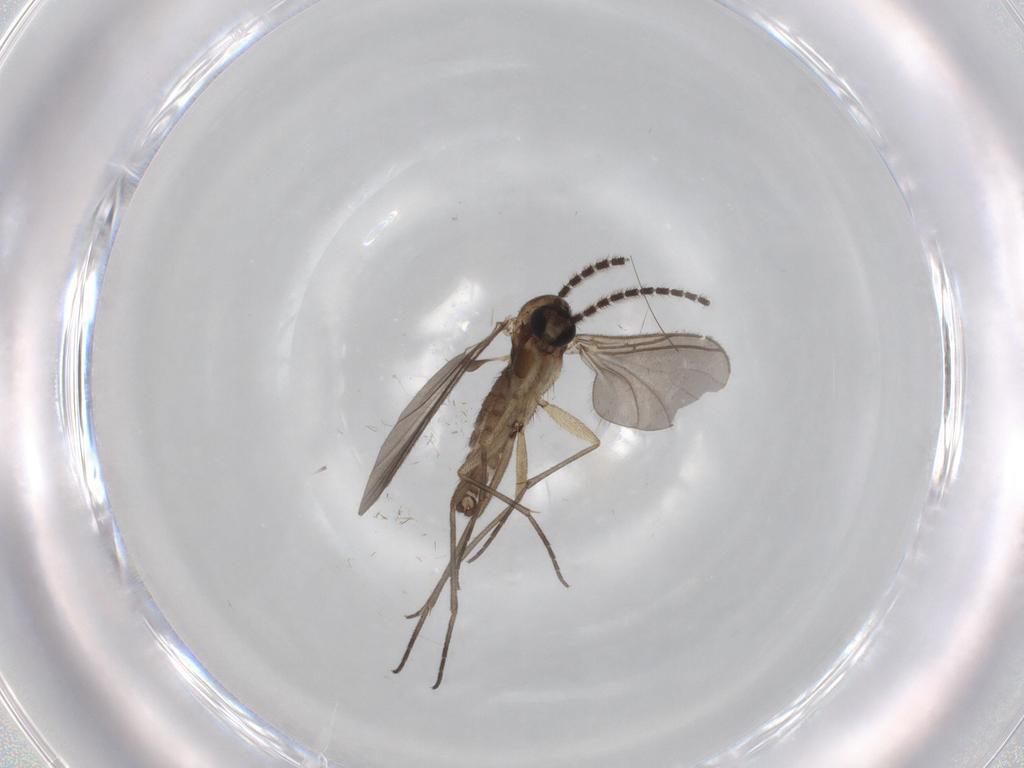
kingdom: Animalia
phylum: Arthropoda
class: Insecta
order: Diptera
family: Sciaridae
